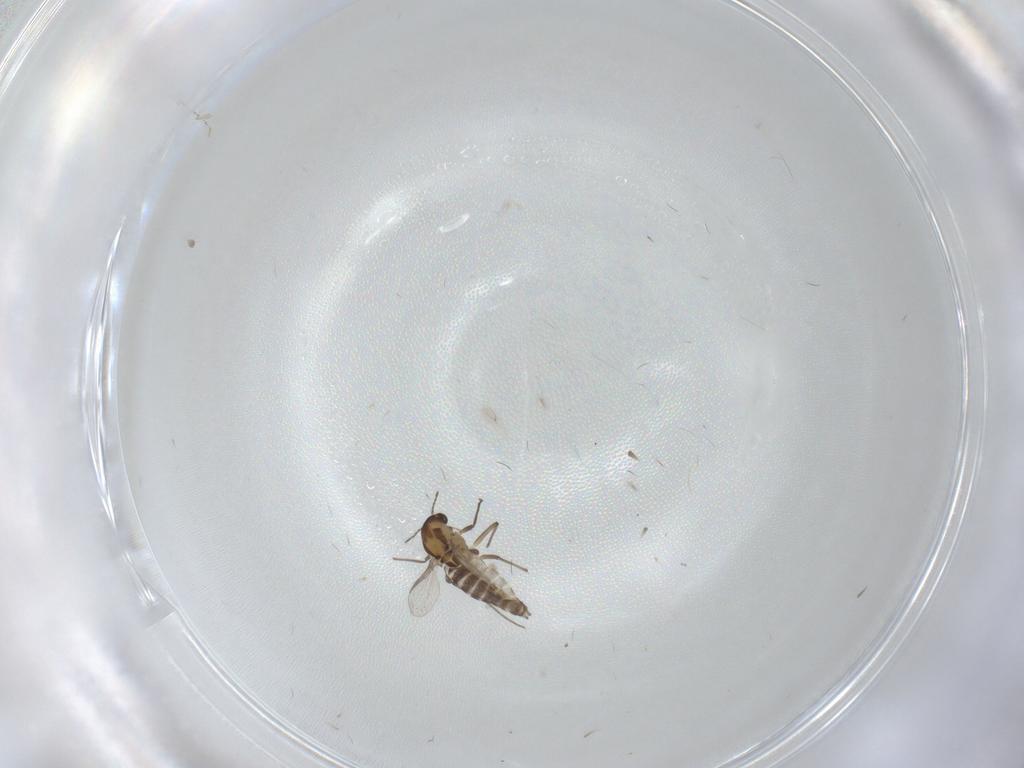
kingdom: Animalia
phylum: Arthropoda
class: Insecta
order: Diptera
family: Chironomidae
